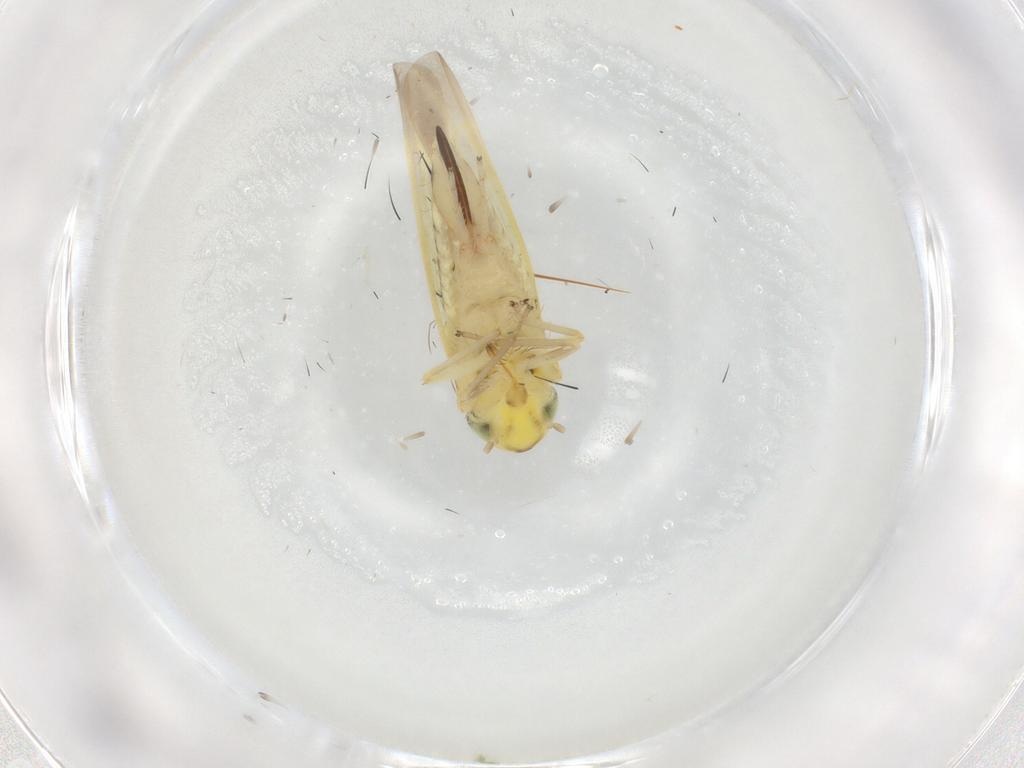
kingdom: Animalia
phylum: Arthropoda
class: Insecta
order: Hemiptera
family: Cicadellidae
